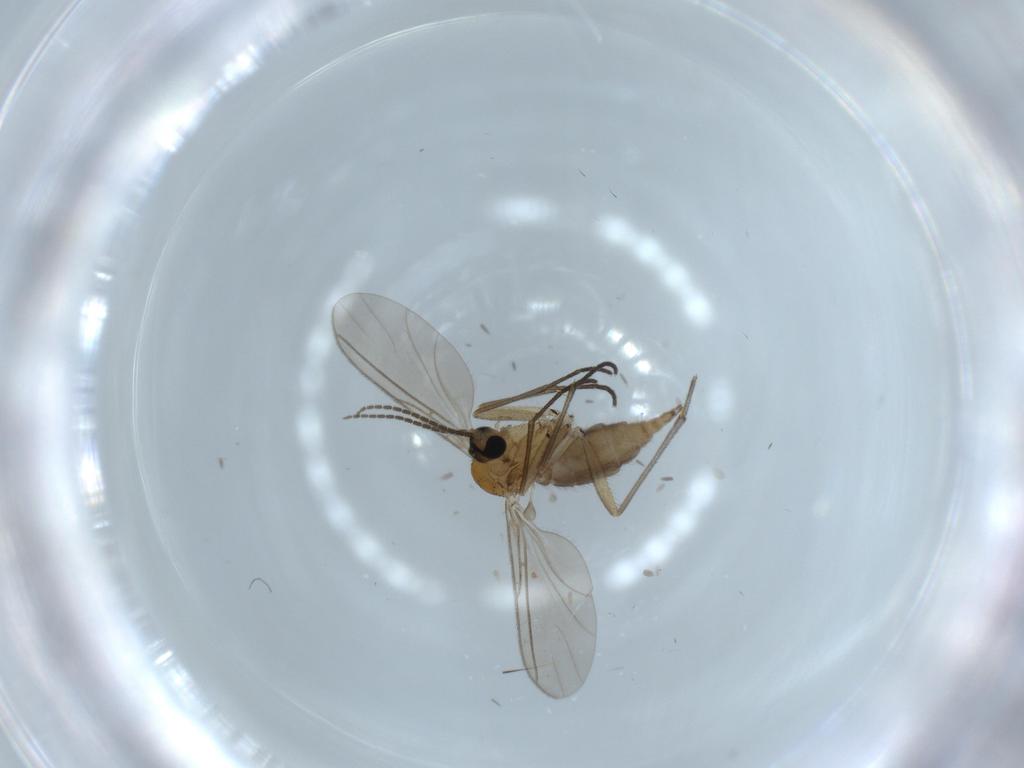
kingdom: Animalia
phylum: Arthropoda
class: Insecta
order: Diptera
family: Sciaridae
